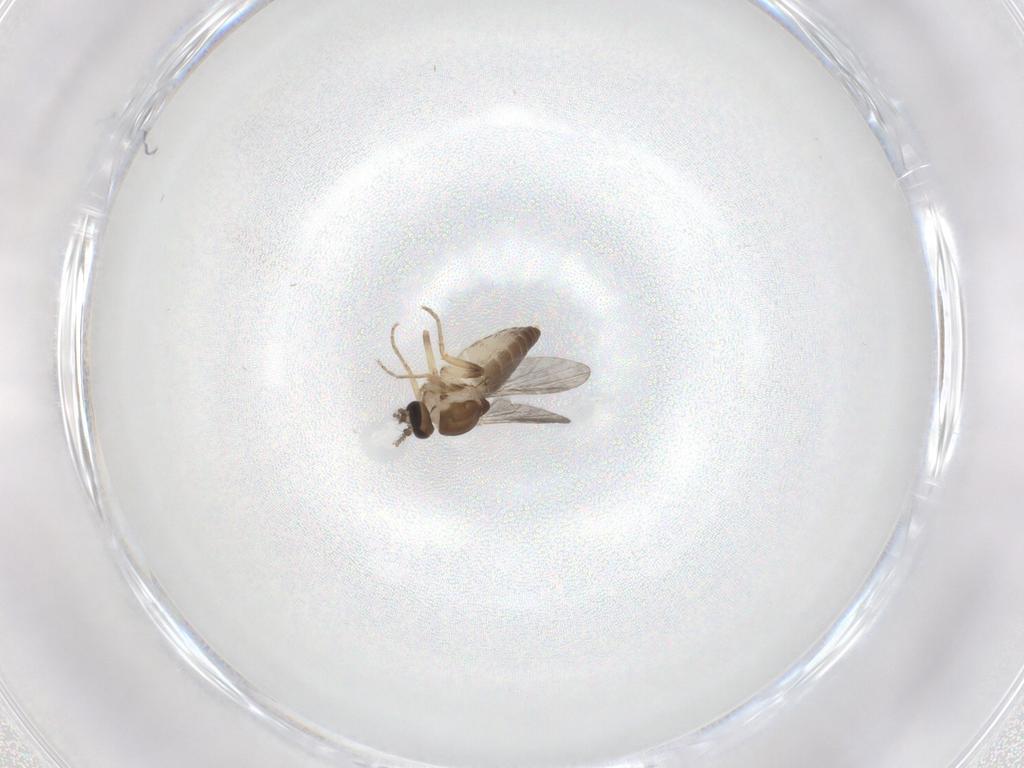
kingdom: Animalia
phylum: Arthropoda
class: Insecta
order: Diptera
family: Ceratopogonidae
